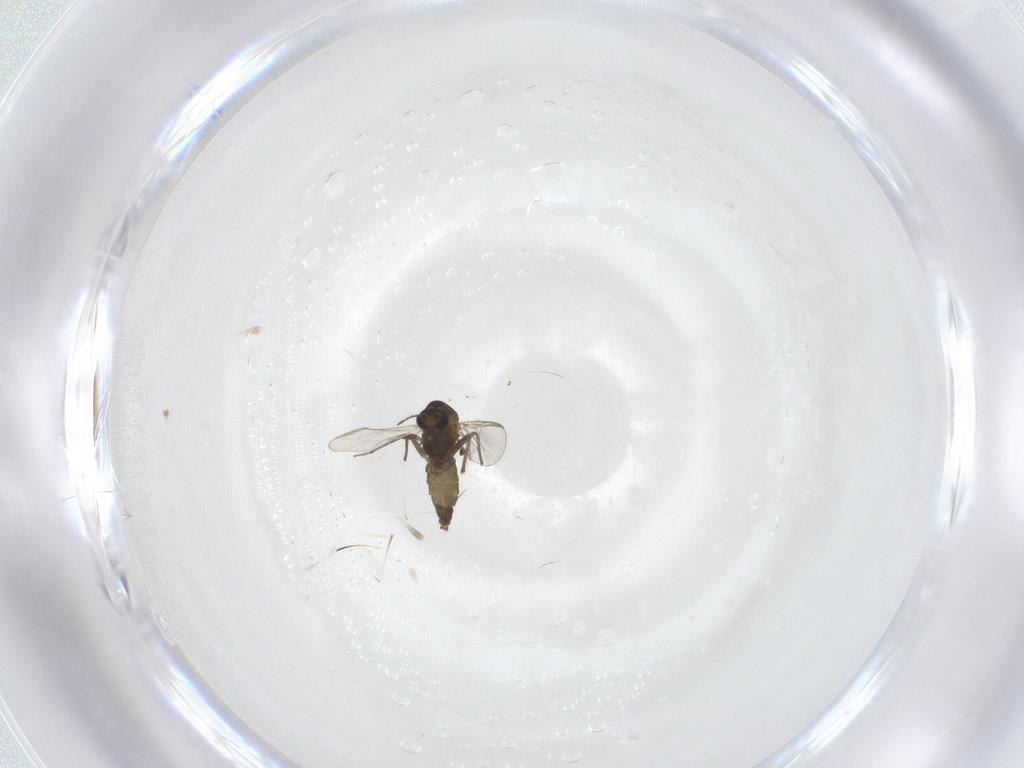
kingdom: Animalia
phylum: Arthropoda
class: Insecta
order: Diptera
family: Chironomidae
